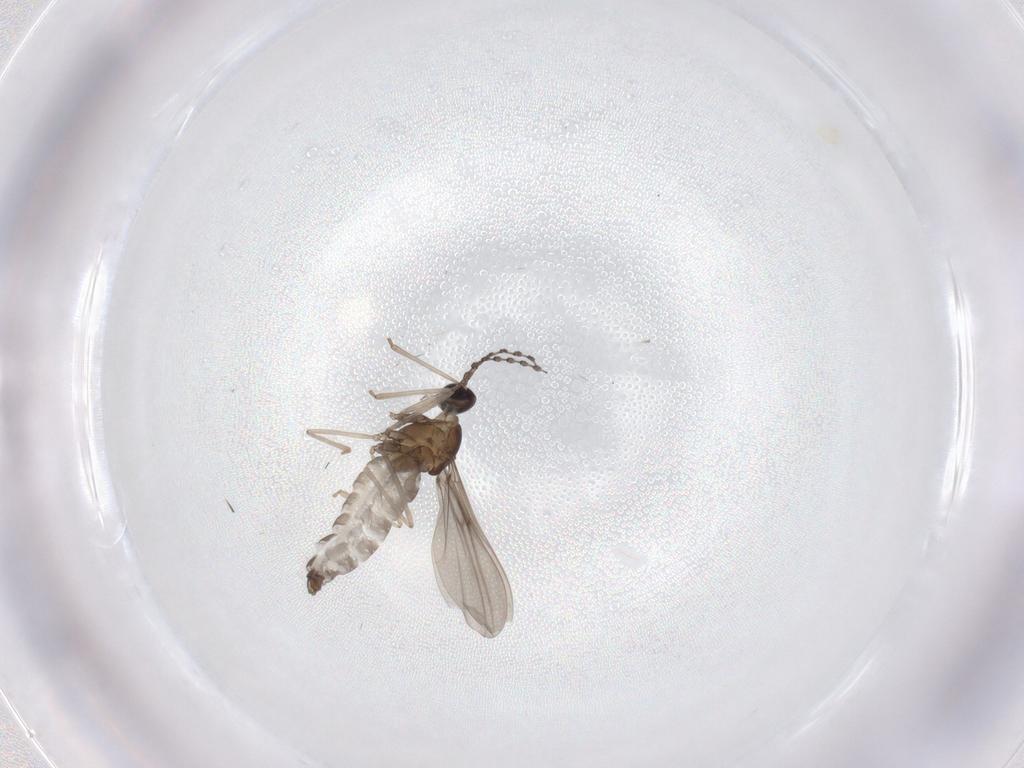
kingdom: Animalia
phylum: Arthropoda
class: Insecta
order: Diptera
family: Cecidomyiidae
